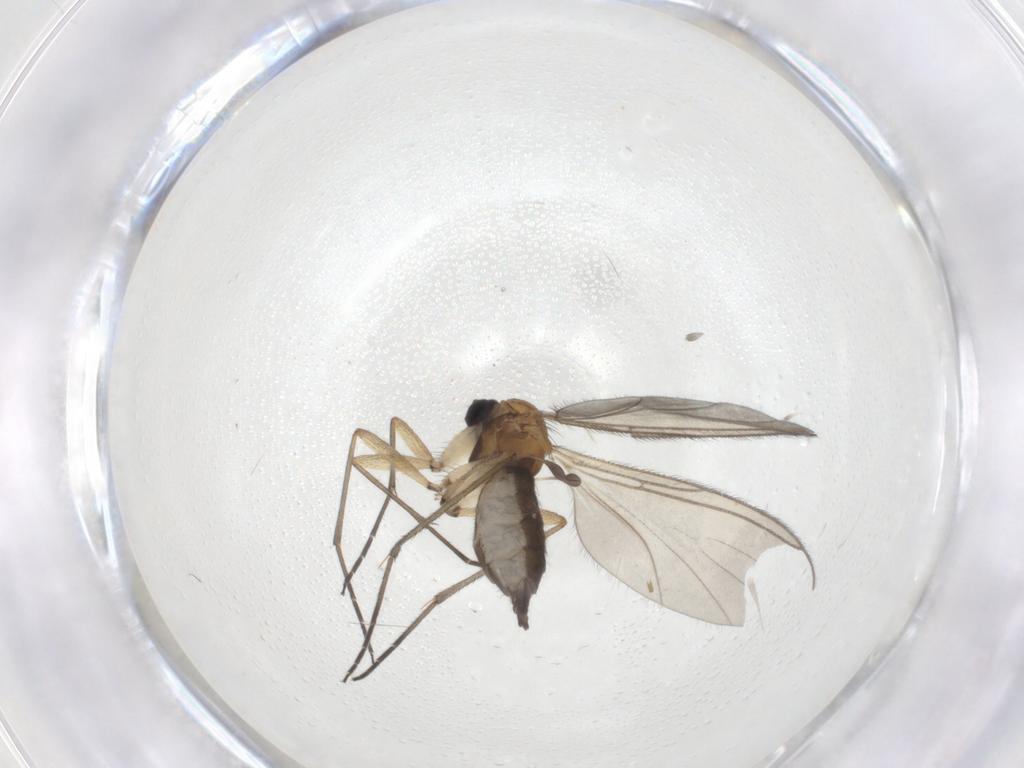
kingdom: Animalia
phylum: Arthropoda
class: Insecta
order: Diptera
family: Sciaridae
